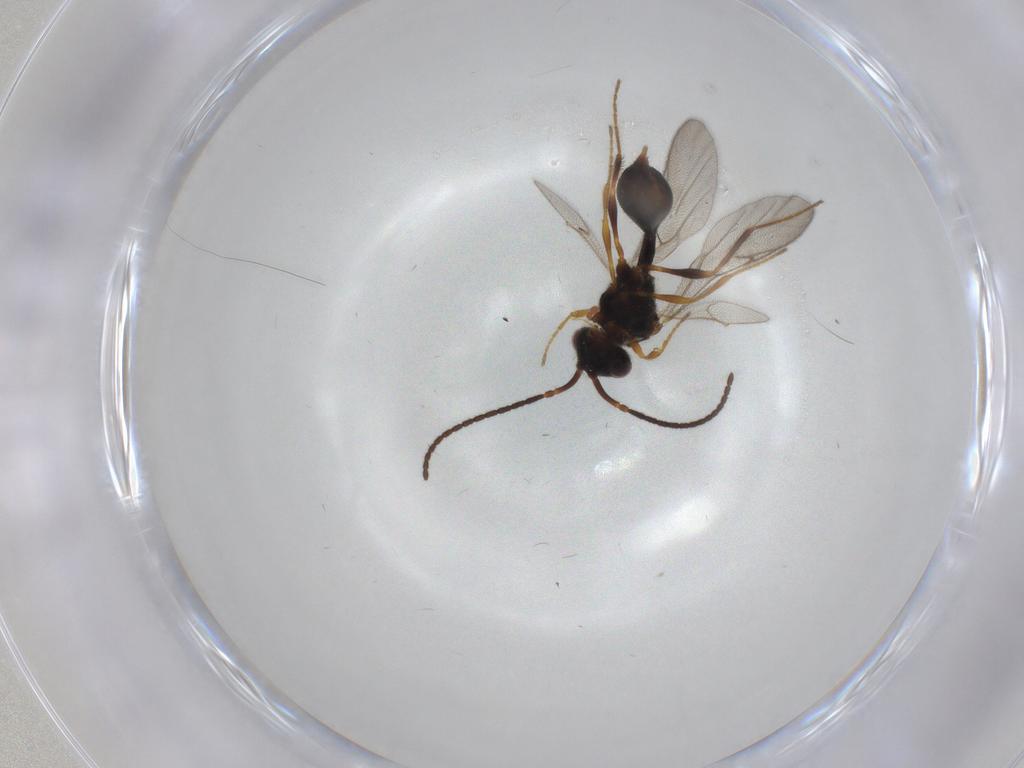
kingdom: Animalia
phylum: Arthropoda
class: Insecta
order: Hymenoptera
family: Diapriidae
